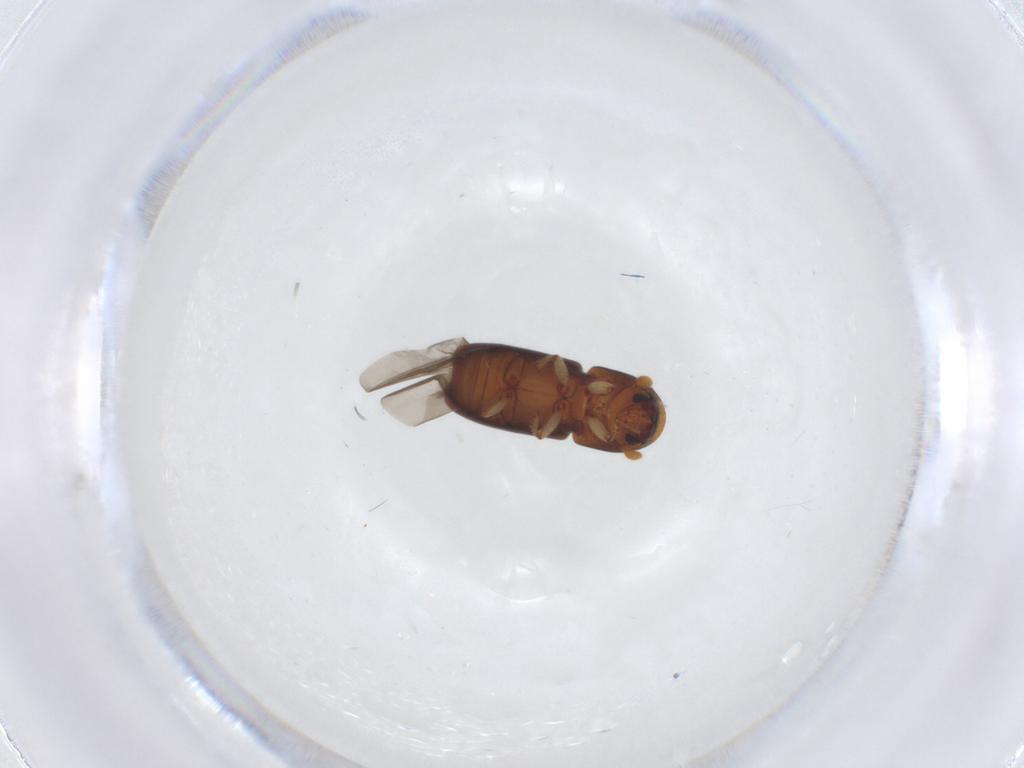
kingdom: Animalia
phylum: Arthropoda
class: Insecta
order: Coleoptera
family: Curculionidae
